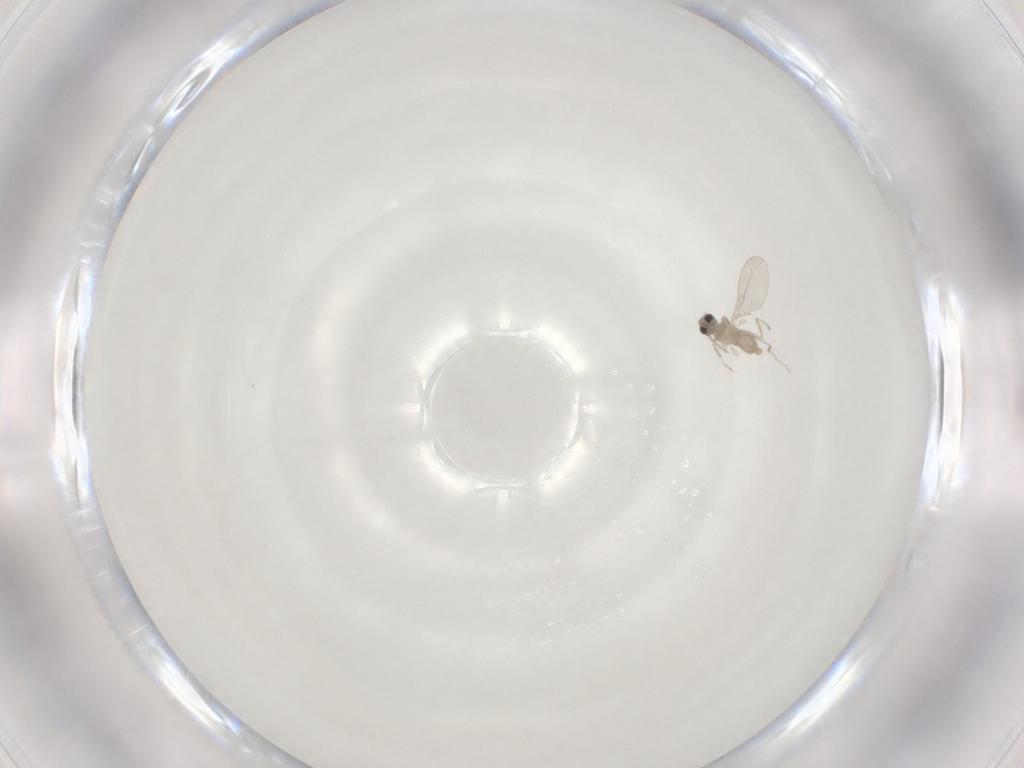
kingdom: Animalia
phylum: Arthropoda
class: Insecta
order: Diptera
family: Cecidomyiidae
